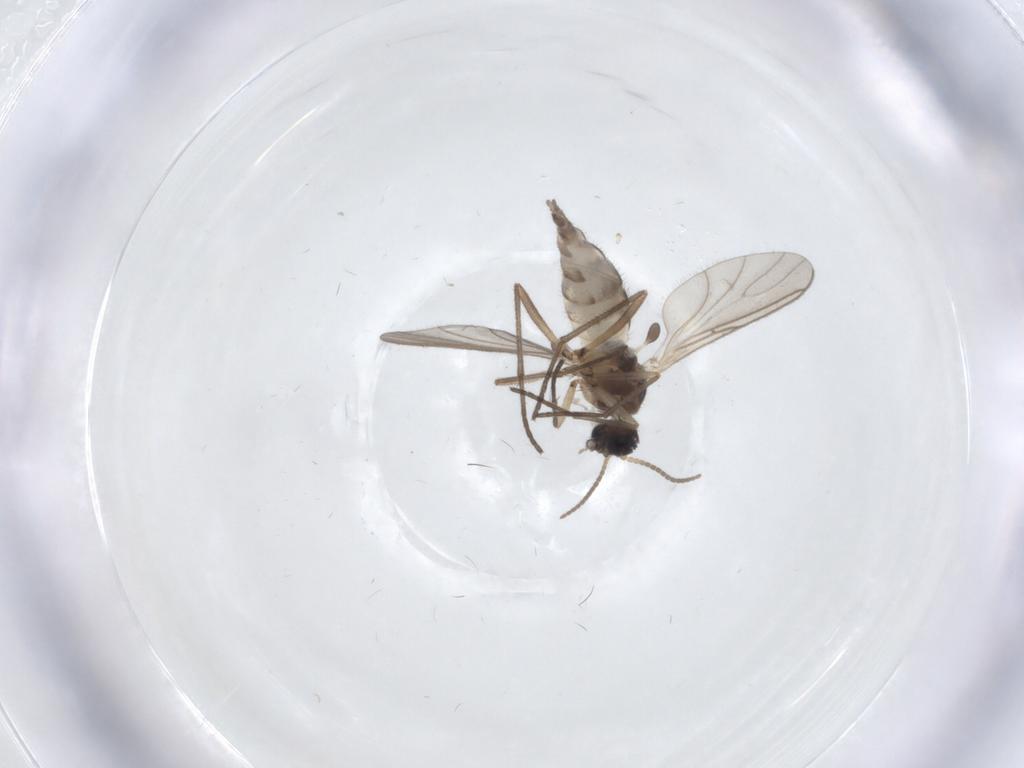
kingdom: Animalia
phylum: Arthropoda
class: Insecta
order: Diptera
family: Sciaridae
